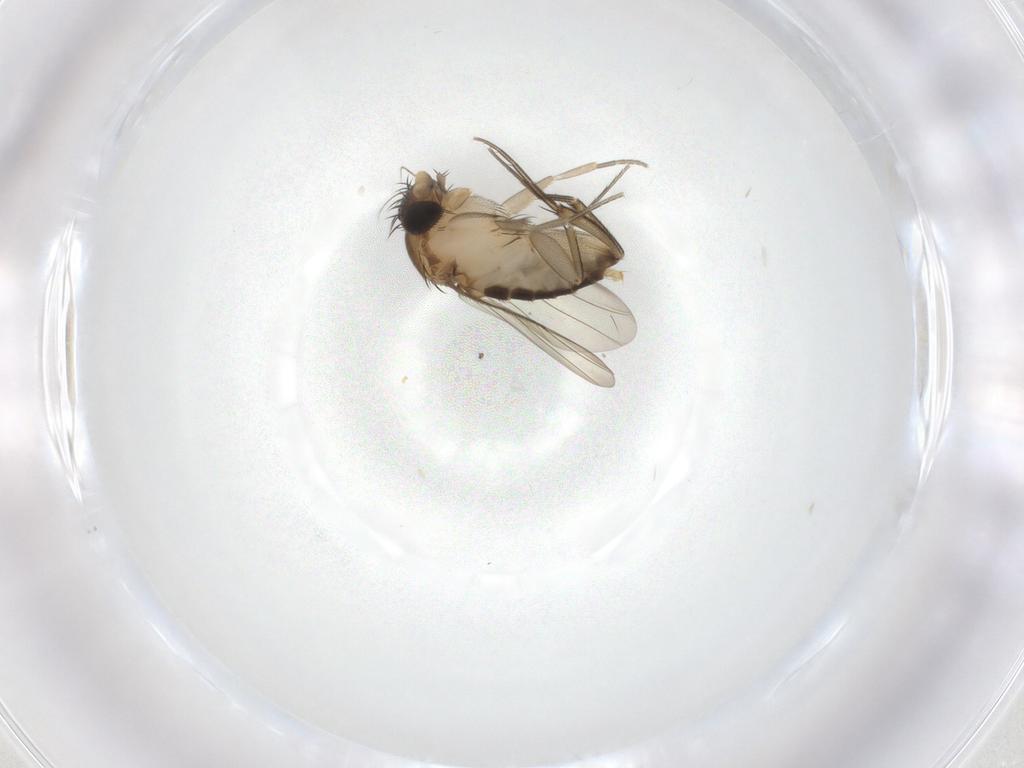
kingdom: Animalia
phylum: Arthropoda
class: Insecta
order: Diptera
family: Phoridae
